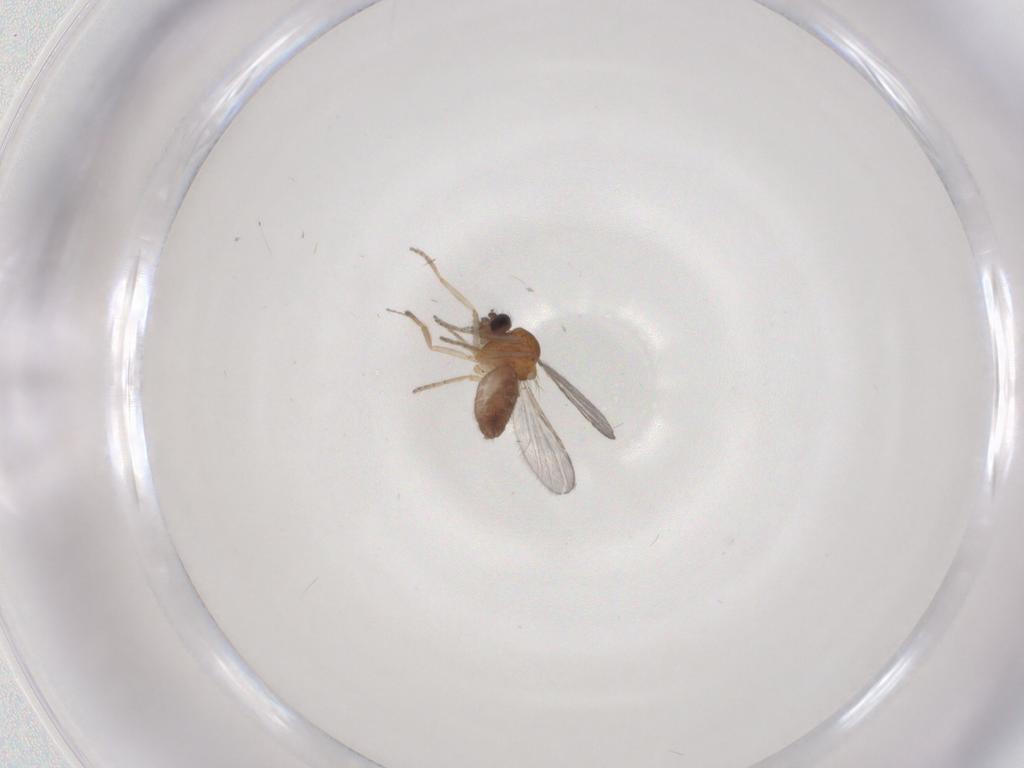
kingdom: Animalia
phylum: Arthropoda
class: Insecta
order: Diptera
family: Ceratopogonidae
